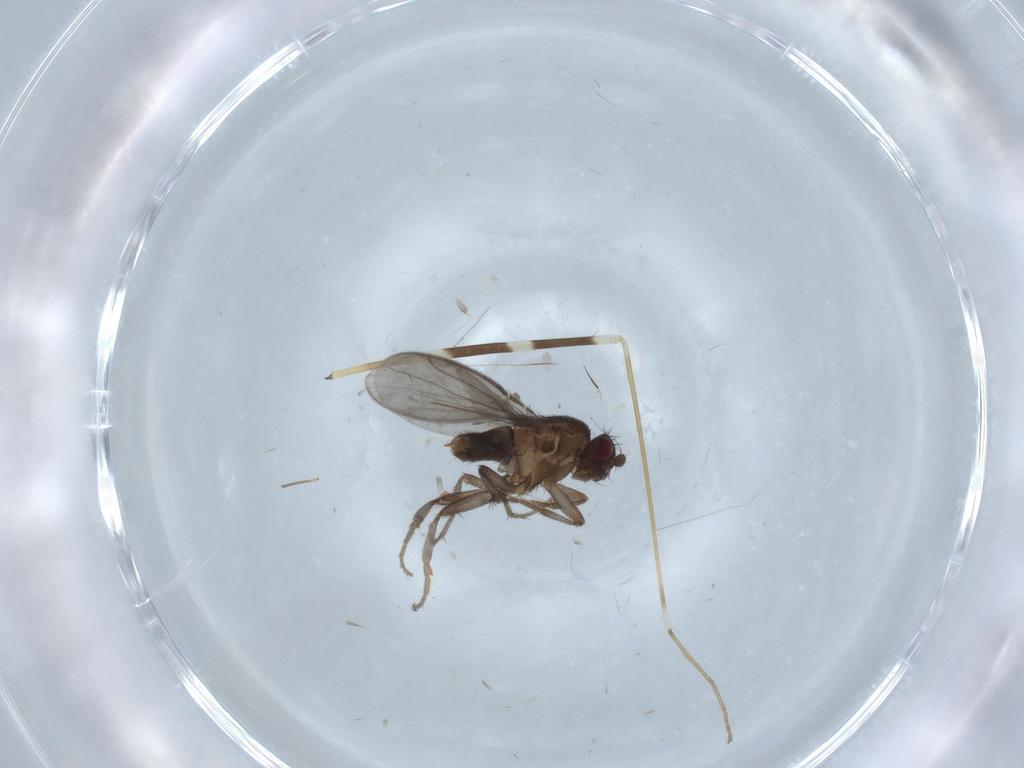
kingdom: Animalia
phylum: Arthropoda
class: Insecta
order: Diptera
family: Sphaeroceridae
